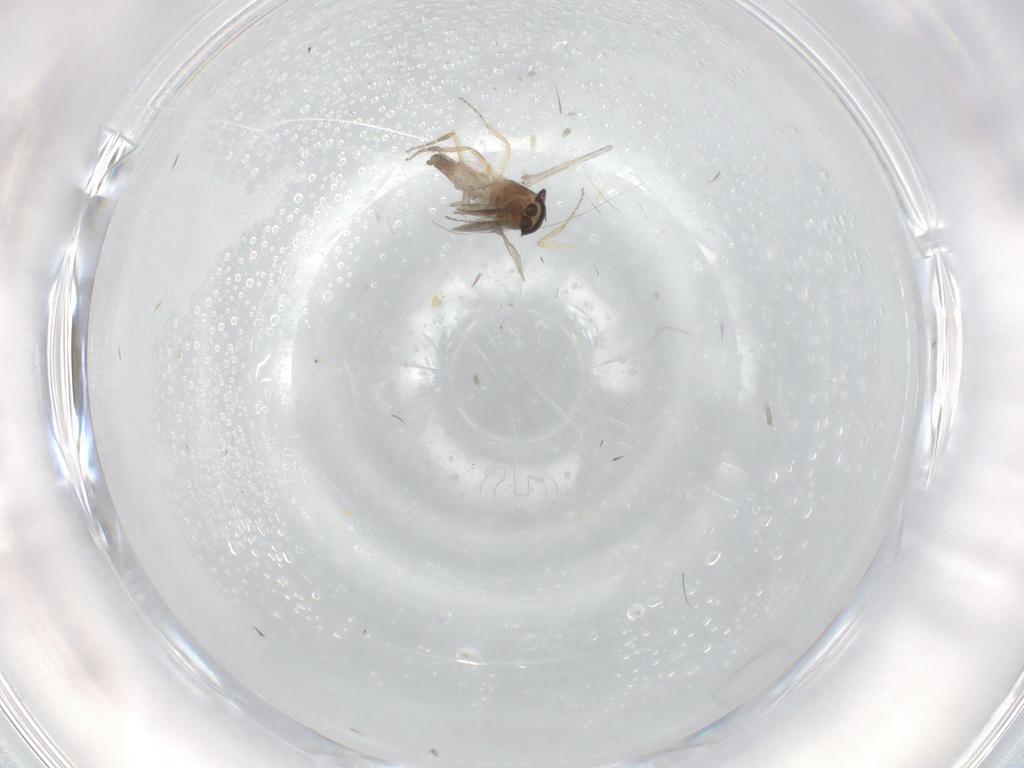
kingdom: Animalia
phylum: Arthropoda
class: Insecta
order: Diptera
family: Ceratopogonidae
